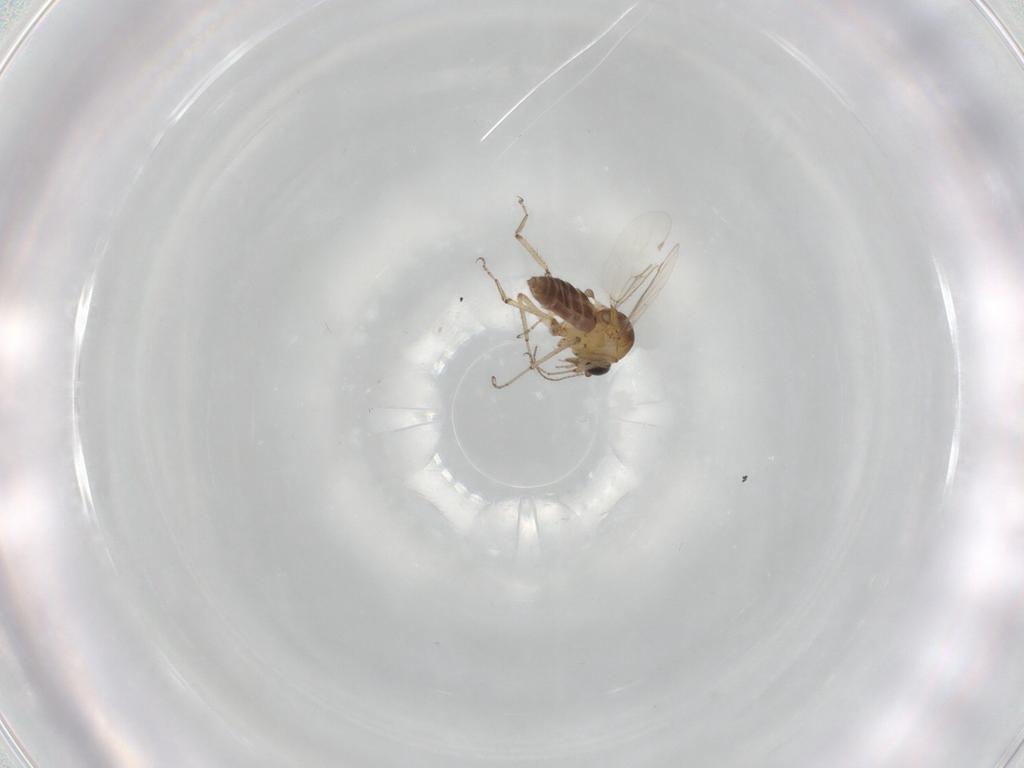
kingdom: Animalia
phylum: Arthropoda
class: Insecta
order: Diptera
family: Ceratopogonidae
